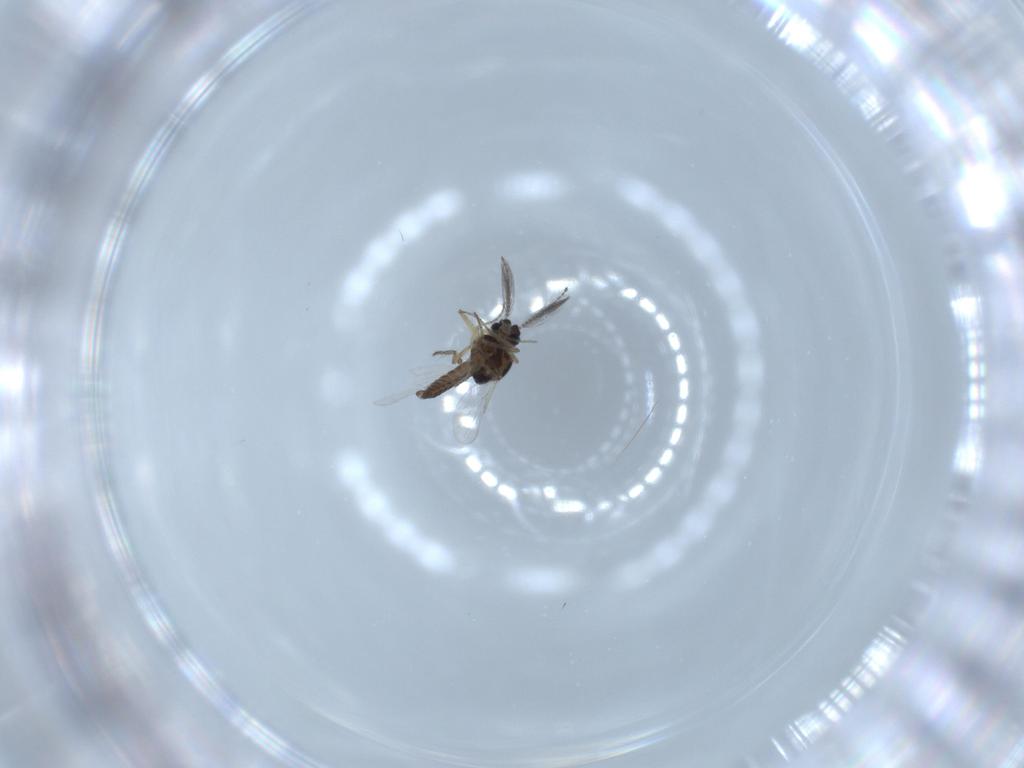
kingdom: Animalia
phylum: Arthropoda
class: Insecta
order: Diptera
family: Ceratopogonidae
